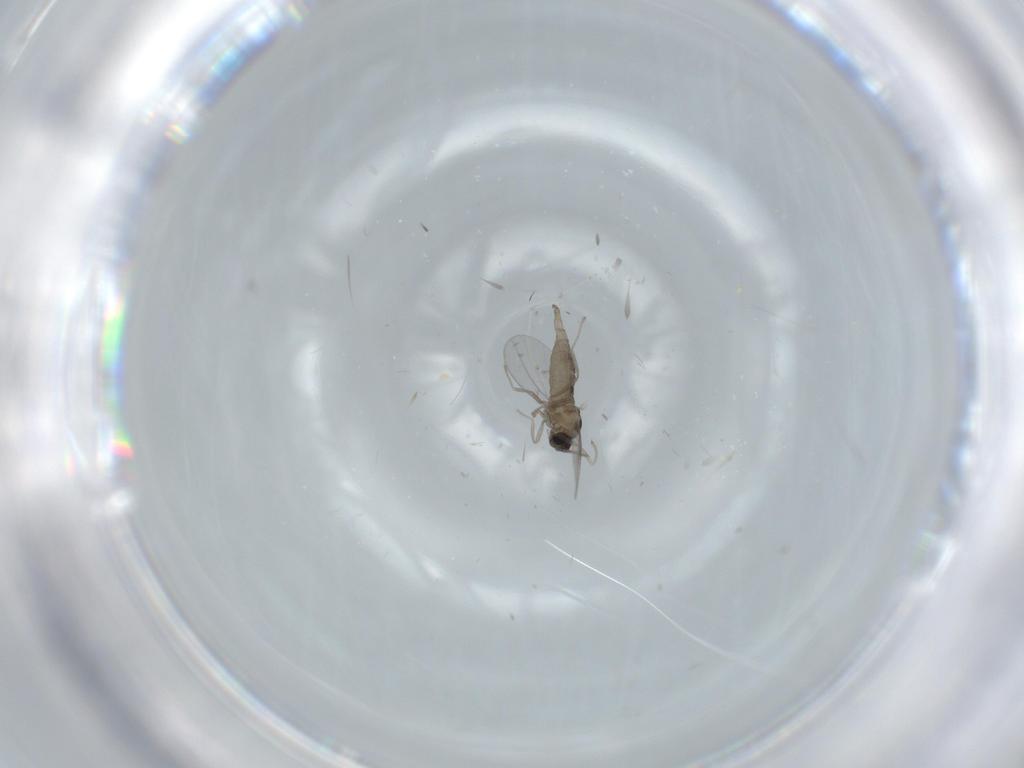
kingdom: Animalia
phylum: Arthropoda
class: Insecta
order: Diptera
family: Cecidomyiidae
